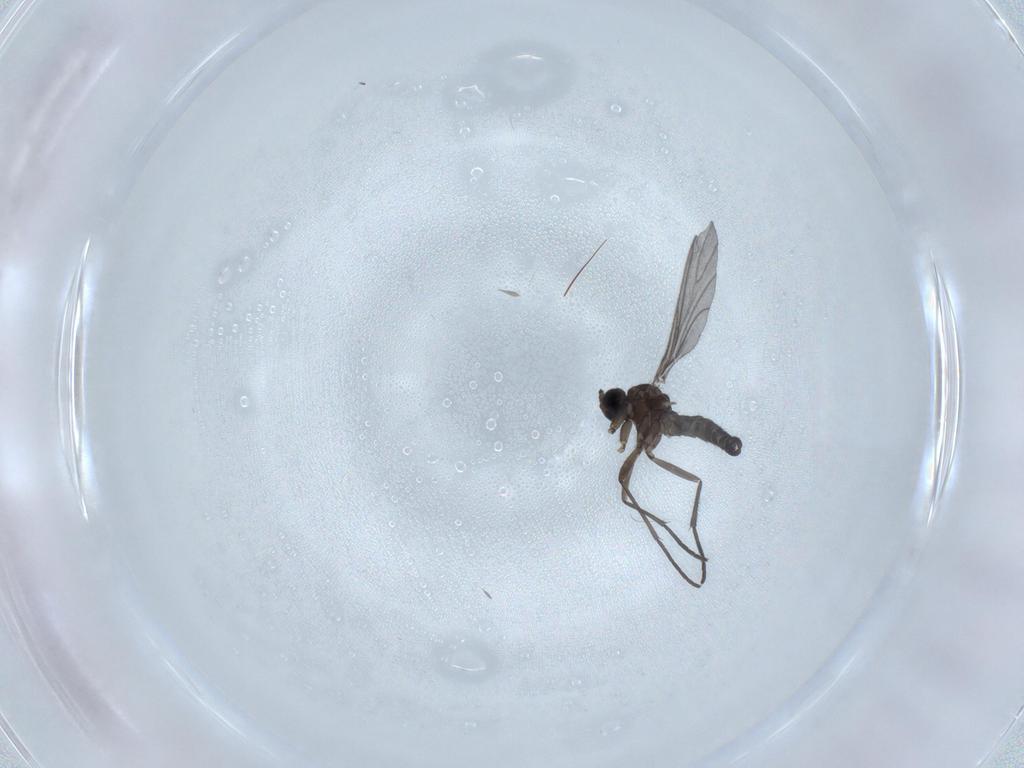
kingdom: Animalia
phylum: Arthropoda
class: Insecta
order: Diptera
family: Sciaridae
